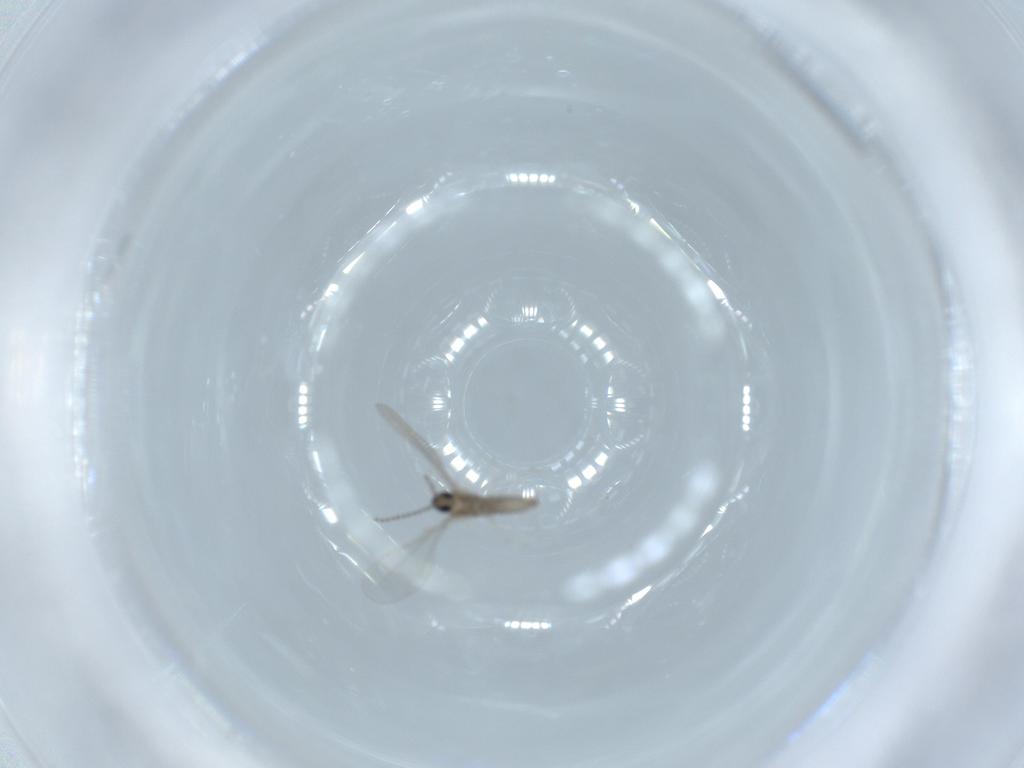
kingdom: Animalia
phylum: Arthropoda
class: Insecta
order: Diptera
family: Cecidomyiidae
